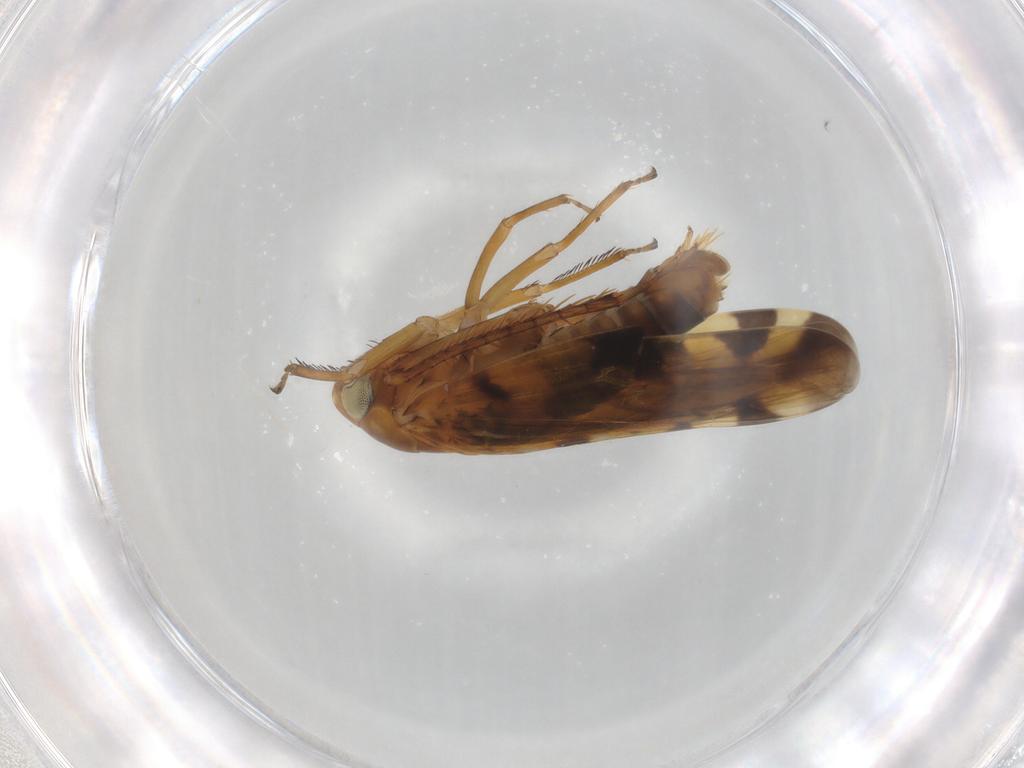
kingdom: Animalia
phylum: Arthropoda
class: Insecta
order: Hemiptera
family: Cicadellidae
